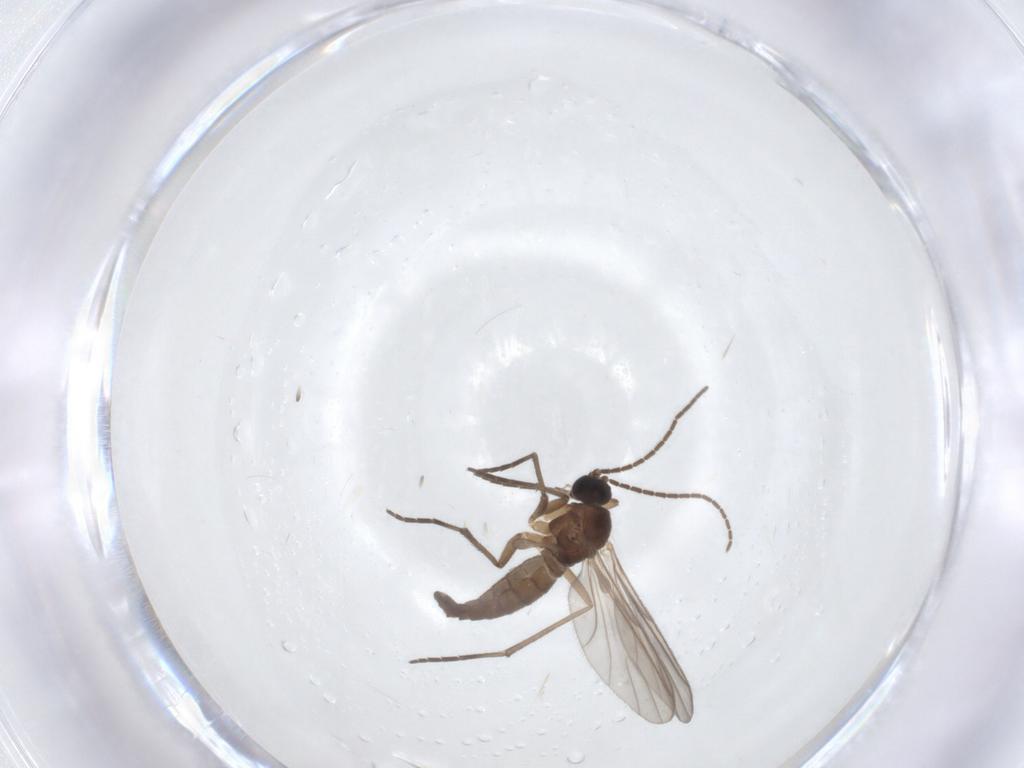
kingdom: Animalia
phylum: Arthropoda
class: Insecta
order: Diptera
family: Sciaridae
